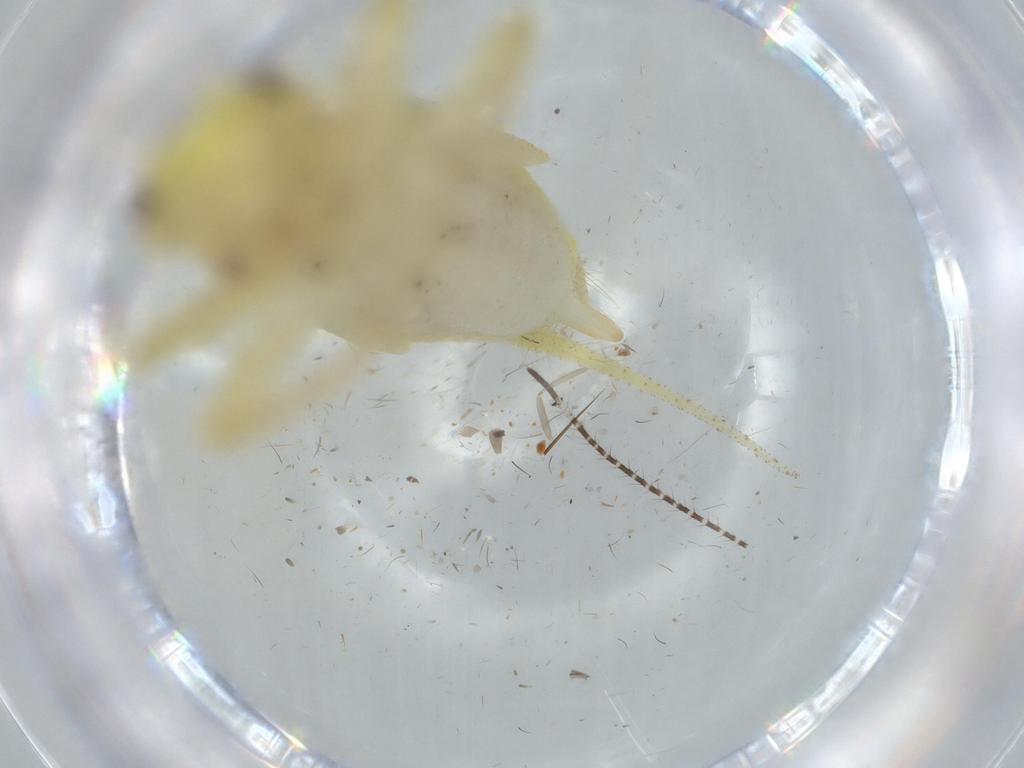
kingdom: Animalia
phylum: Arthropoda
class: Insecta
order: Orthoptera
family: Trigonidiidae
